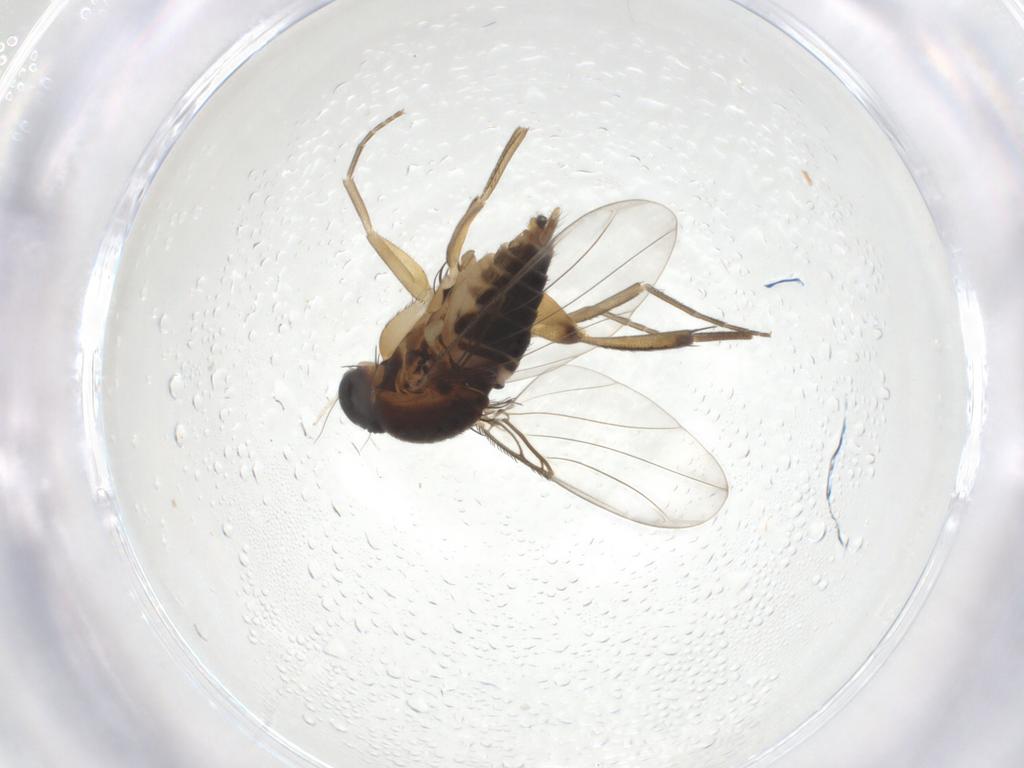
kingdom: Animalia
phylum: Arthropoda
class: Insecta
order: Diptera
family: Phoridae
